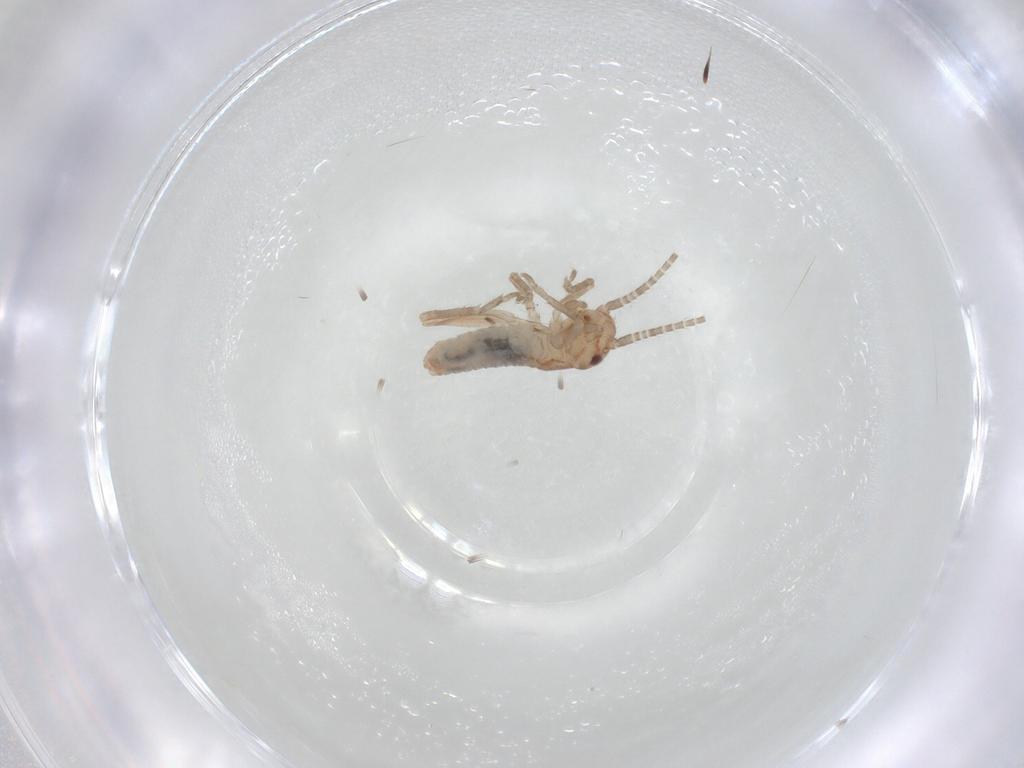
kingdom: Animalia
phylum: Arthropoda
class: Insecta
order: Orthoptera
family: Gryllidae
